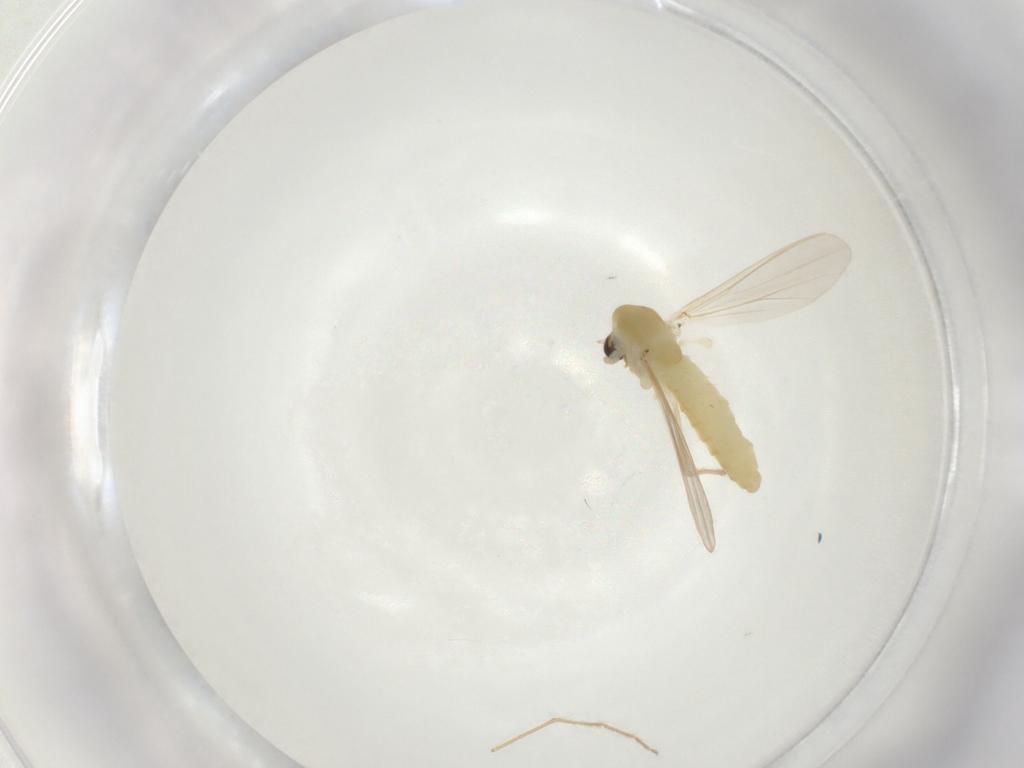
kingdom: Animalia
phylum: Arthropoda
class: Insecta
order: Diptera
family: Chironomidae
